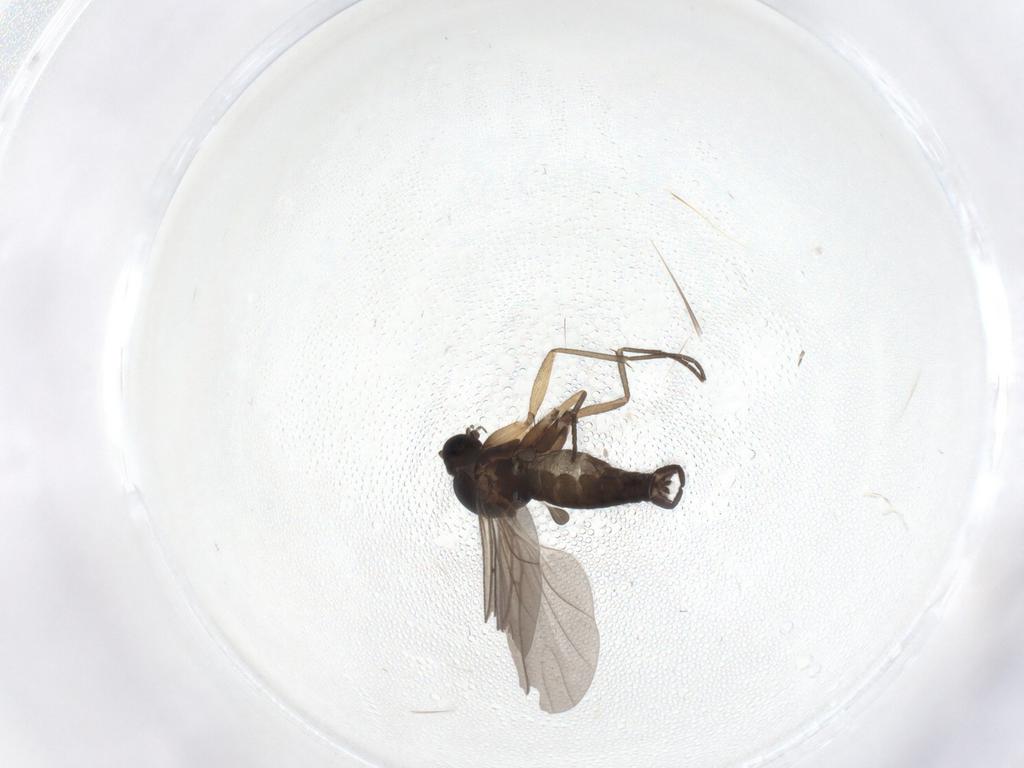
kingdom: Animalia
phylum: Arthropoda
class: Insecta
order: Diptera
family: Sciaridae
